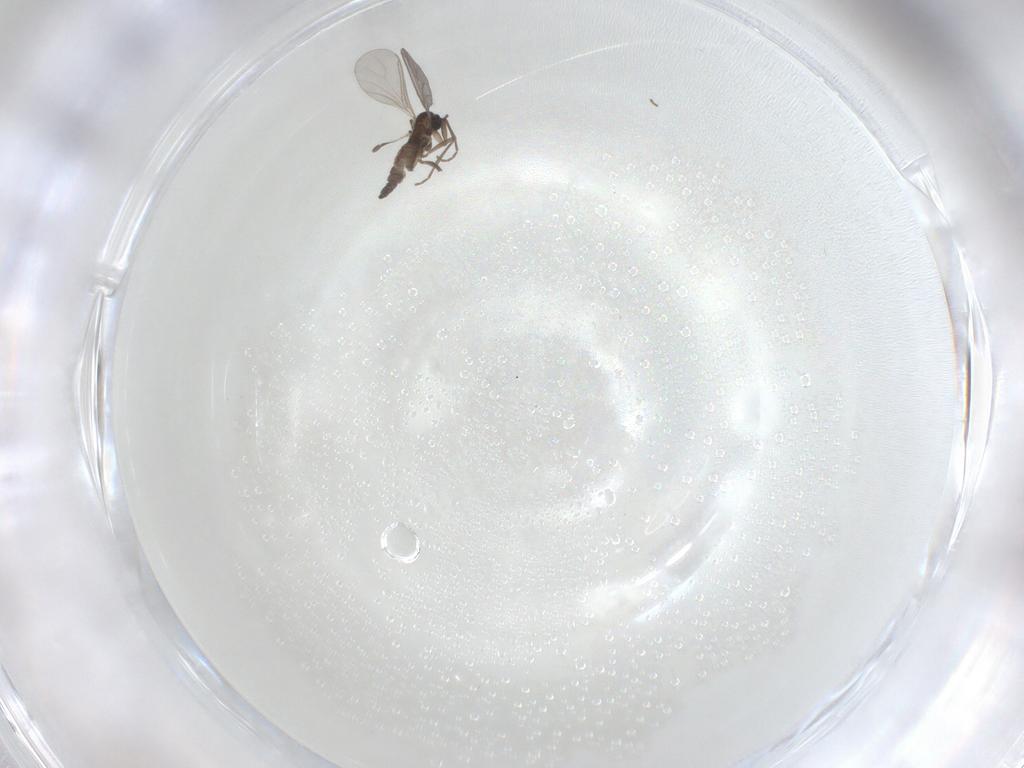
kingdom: Animalia
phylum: Arthropoda
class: Insecta
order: Diptera
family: Sciaridae
